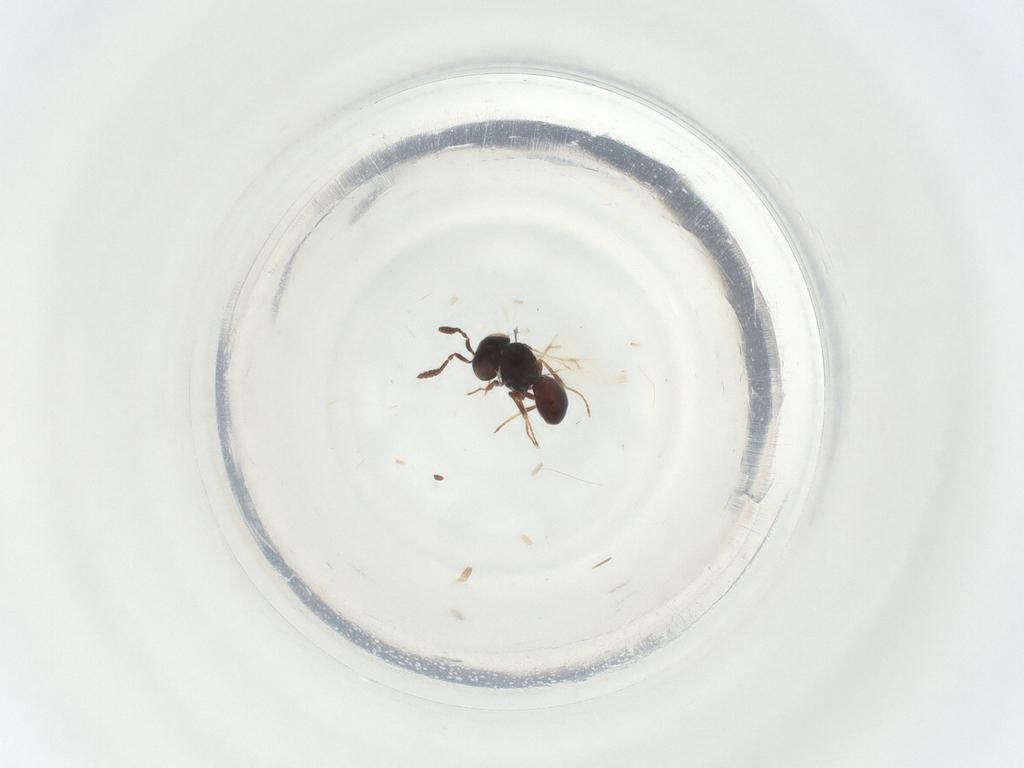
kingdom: Animalia
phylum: Arthropoda
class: Insecta
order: Hymenoptera
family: Scelionidae
